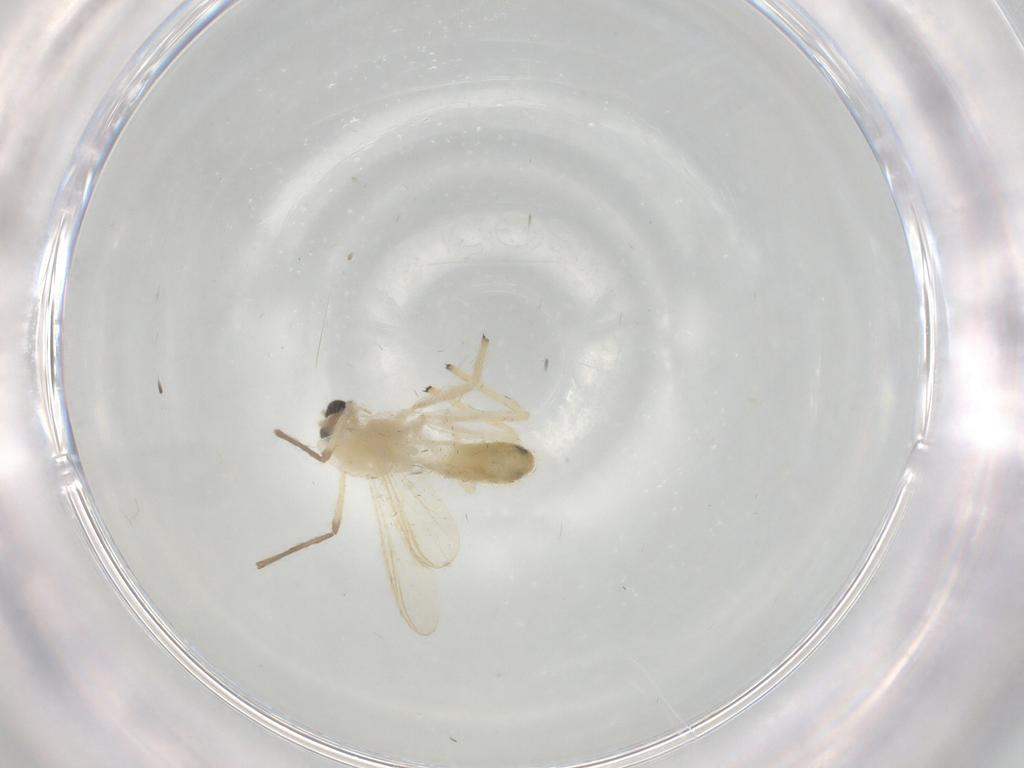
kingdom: Animalia
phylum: Arthropoda
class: Insecta
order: Diptera
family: Chironomidae
